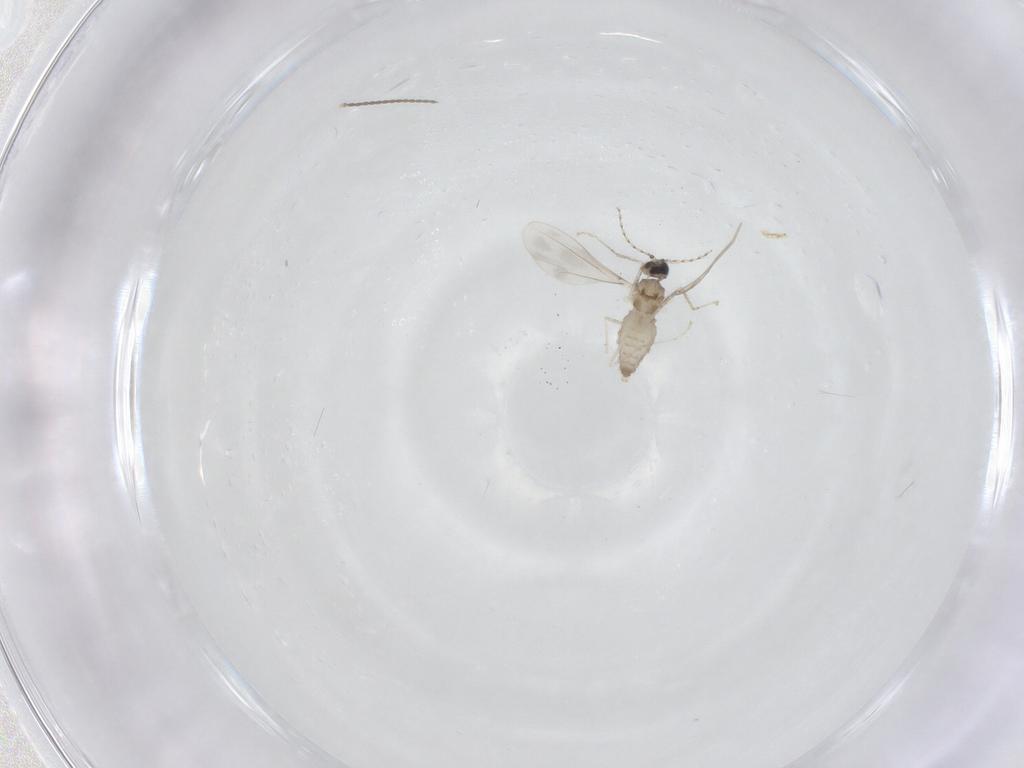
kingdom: Animalia
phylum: Arthropoda
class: Insecta
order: Diptera
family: Cecidomyiidae
